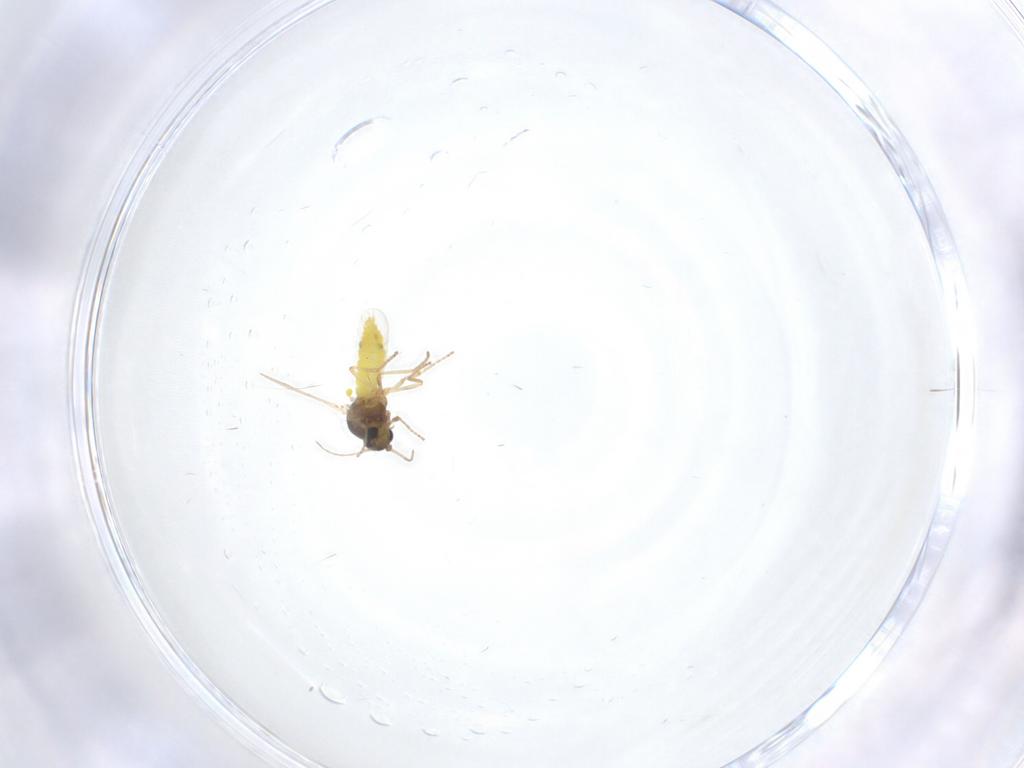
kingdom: Animalia
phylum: Arthropoda
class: Insecta
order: Diptera
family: Ceratopogonidae
